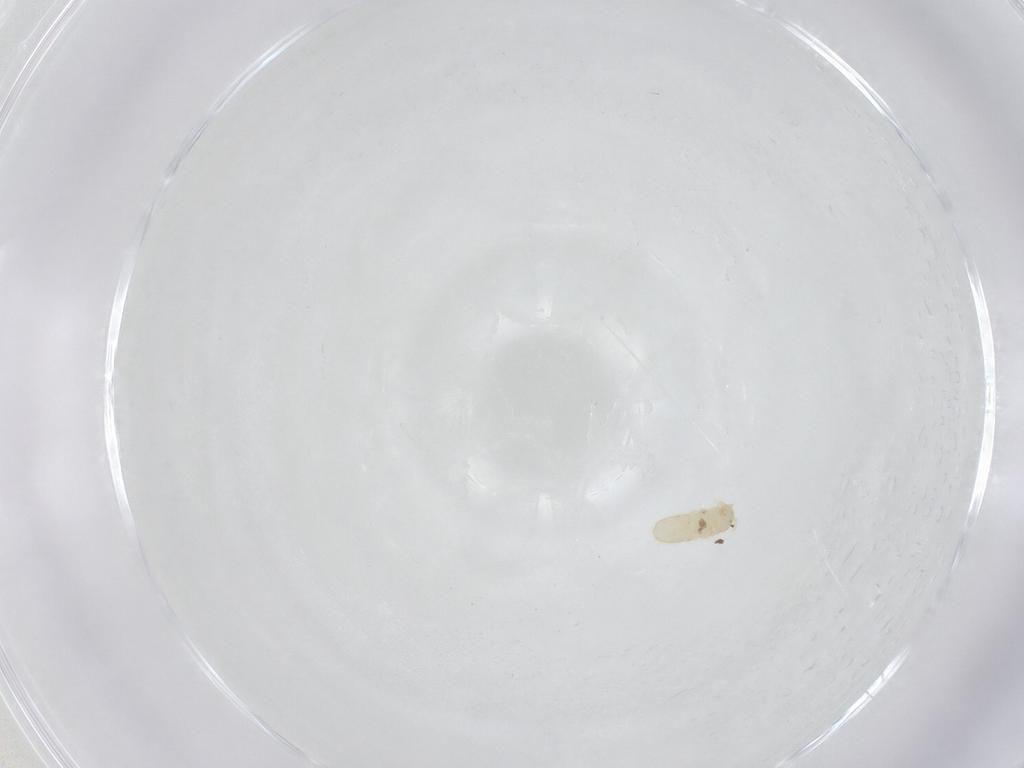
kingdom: Animalia
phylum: Arthropoda
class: Collembola
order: Entomobryomorpha
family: Isotomidae
